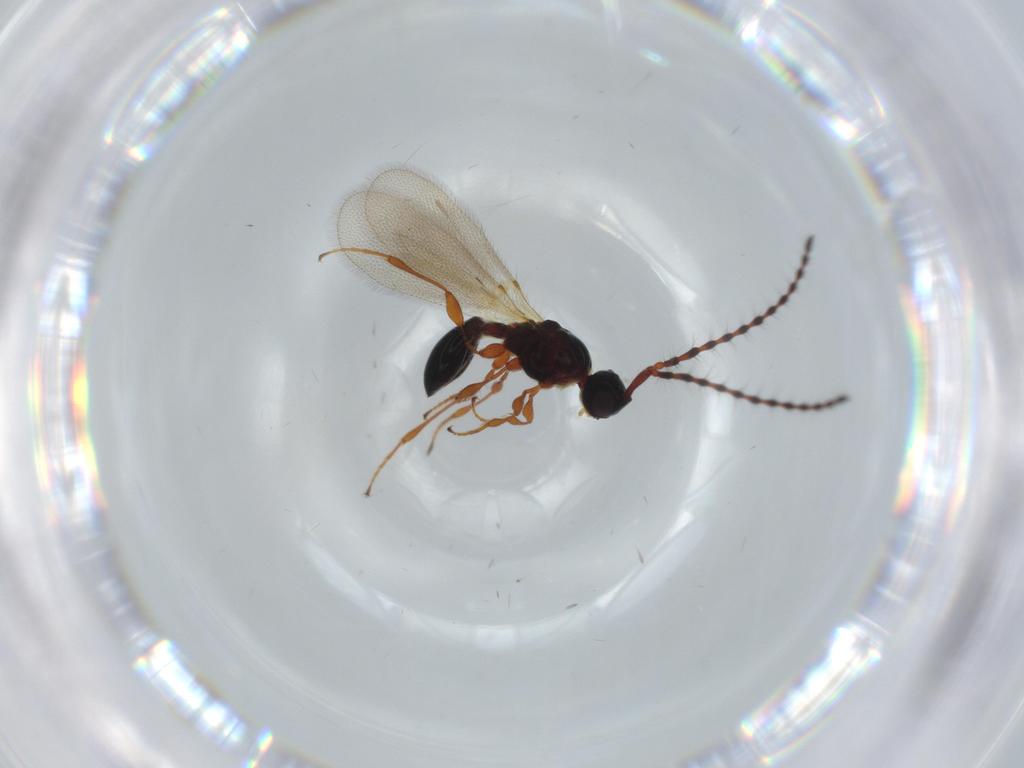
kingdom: Animalia
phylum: Arthropoda
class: Insecta
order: Hymenoptera
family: Diapriidae
